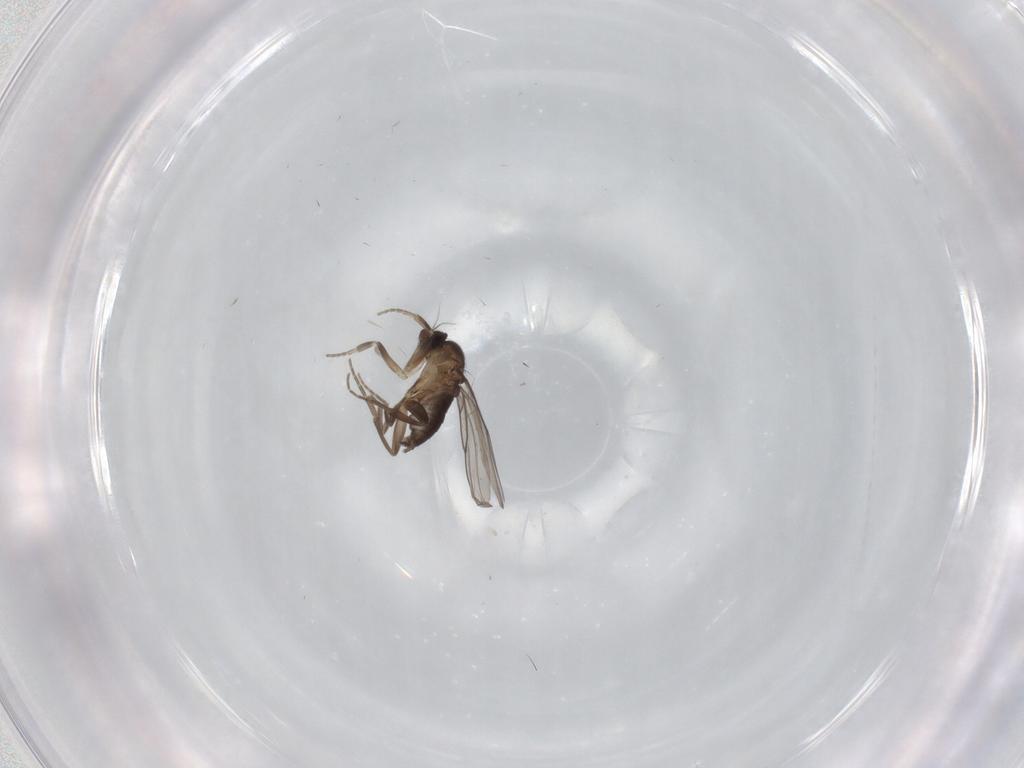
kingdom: Animalia
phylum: Arthropoda
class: Insecta
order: Diptera
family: Phoridae
